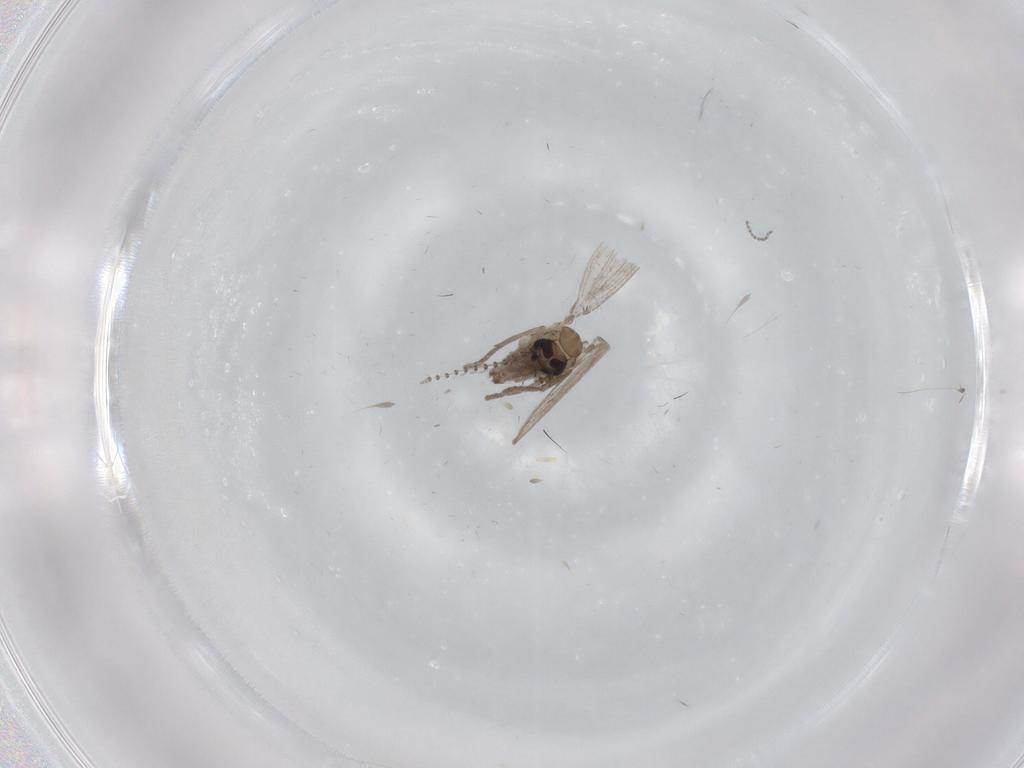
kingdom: Animalia
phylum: Arthropoda
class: Insecta
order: Diptera
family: Psychodidae
